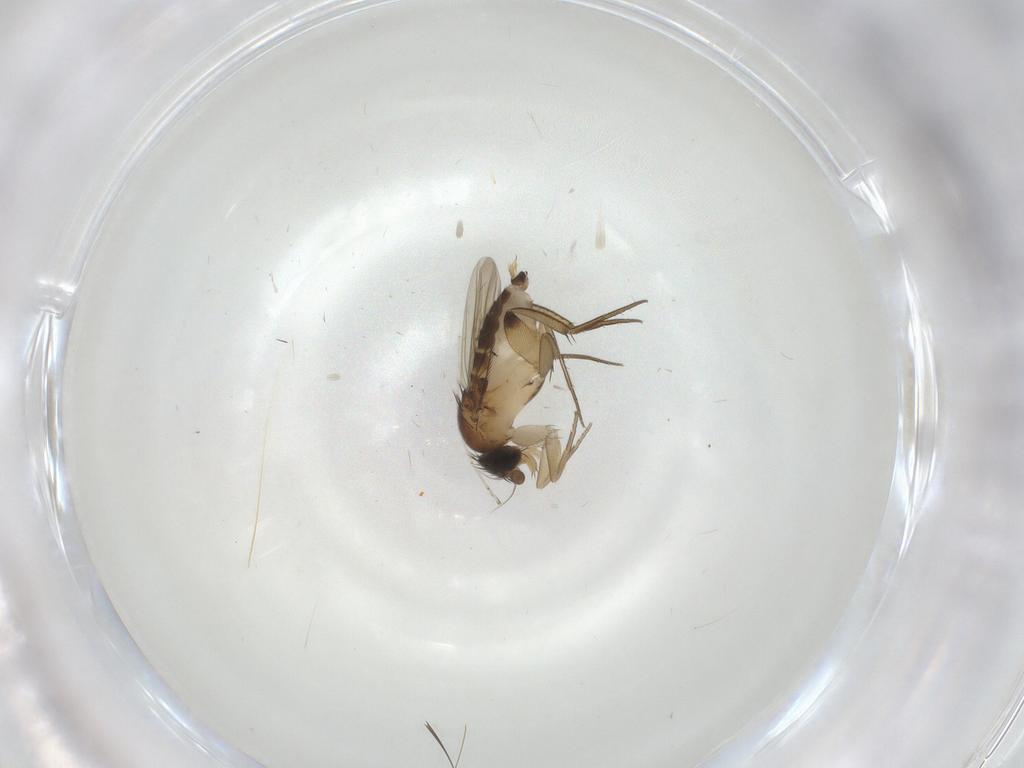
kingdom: Animalia
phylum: Arthropoda
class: Insecta
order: Diptera
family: Phoridae
